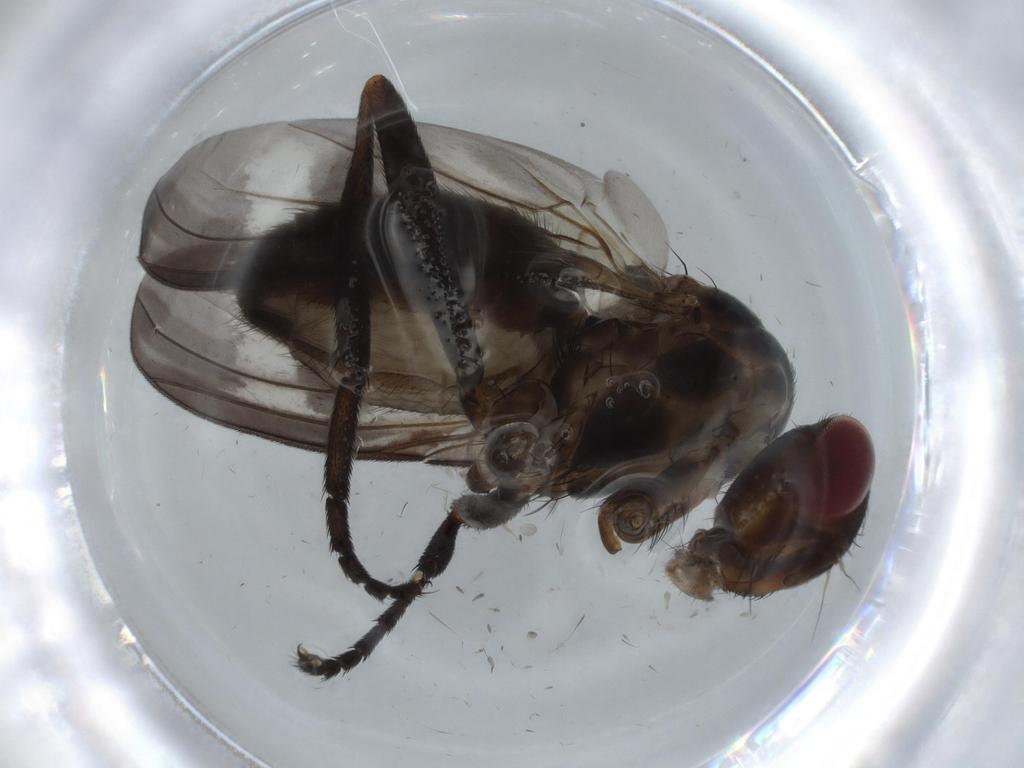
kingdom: Animalia
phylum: Arthropoda
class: Insecta
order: Diptera
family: Calliphoridae
